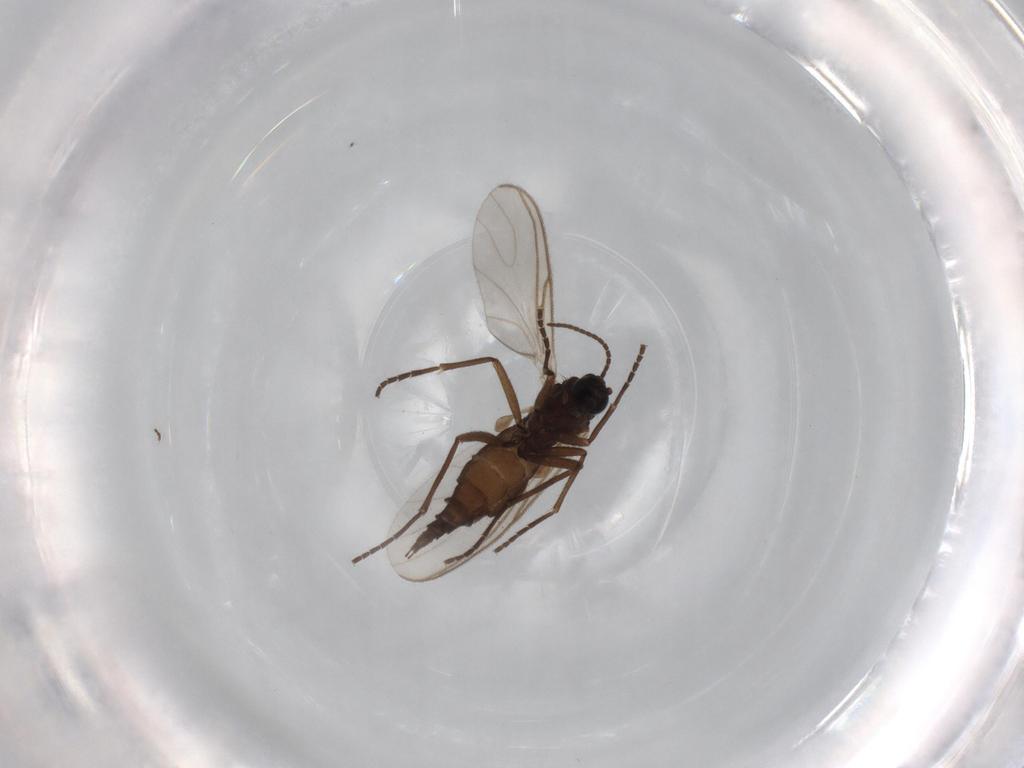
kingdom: Animalia
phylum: Arthropoda
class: Insecta
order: Diptera
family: Sciaridae
